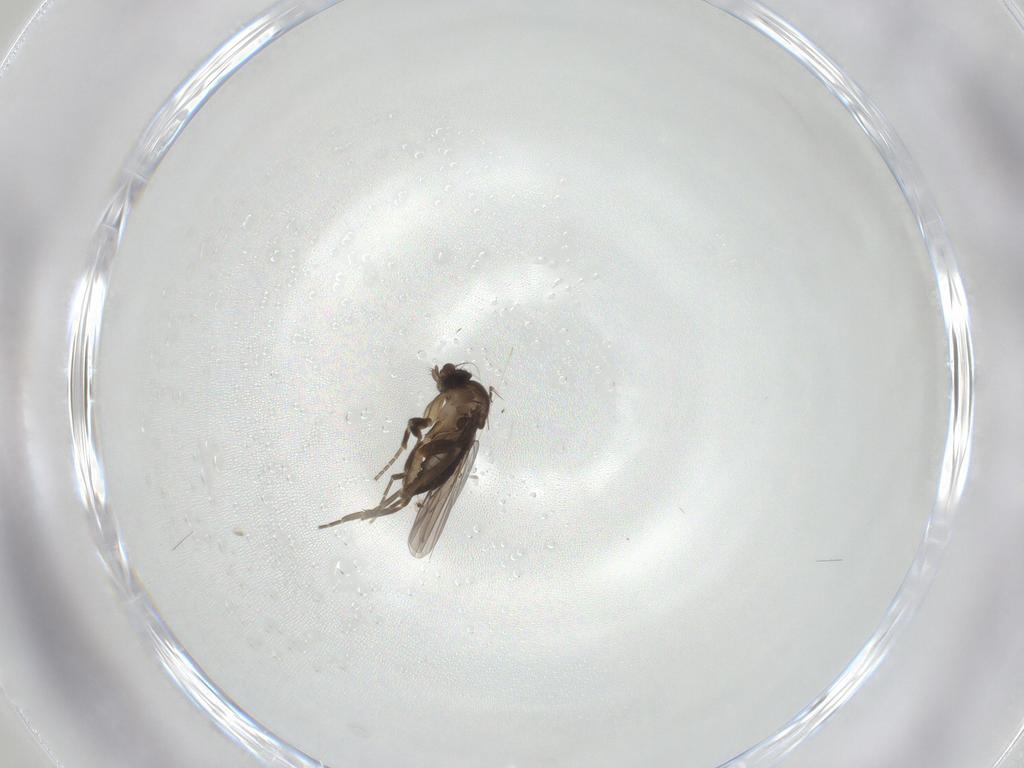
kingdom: Animalia
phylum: Arthropoda
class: Insecta
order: Diptera
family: Phoridae
